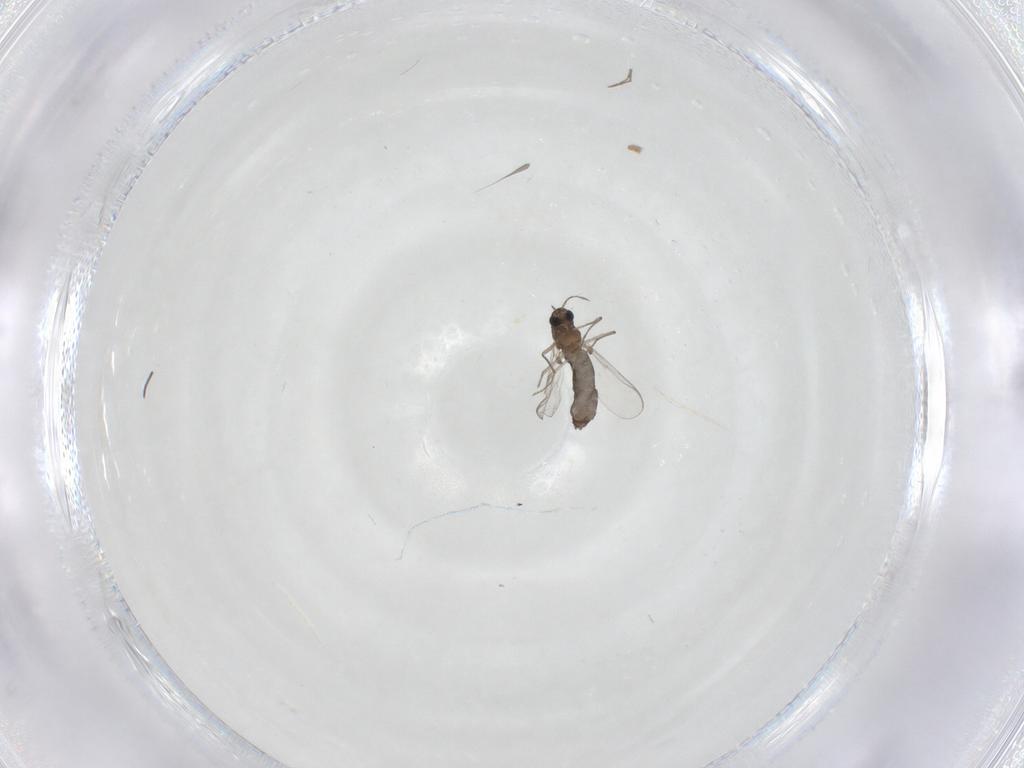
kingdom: Animalia
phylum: Arthropoda
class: Insecta
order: Diptera
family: Chironomidae
